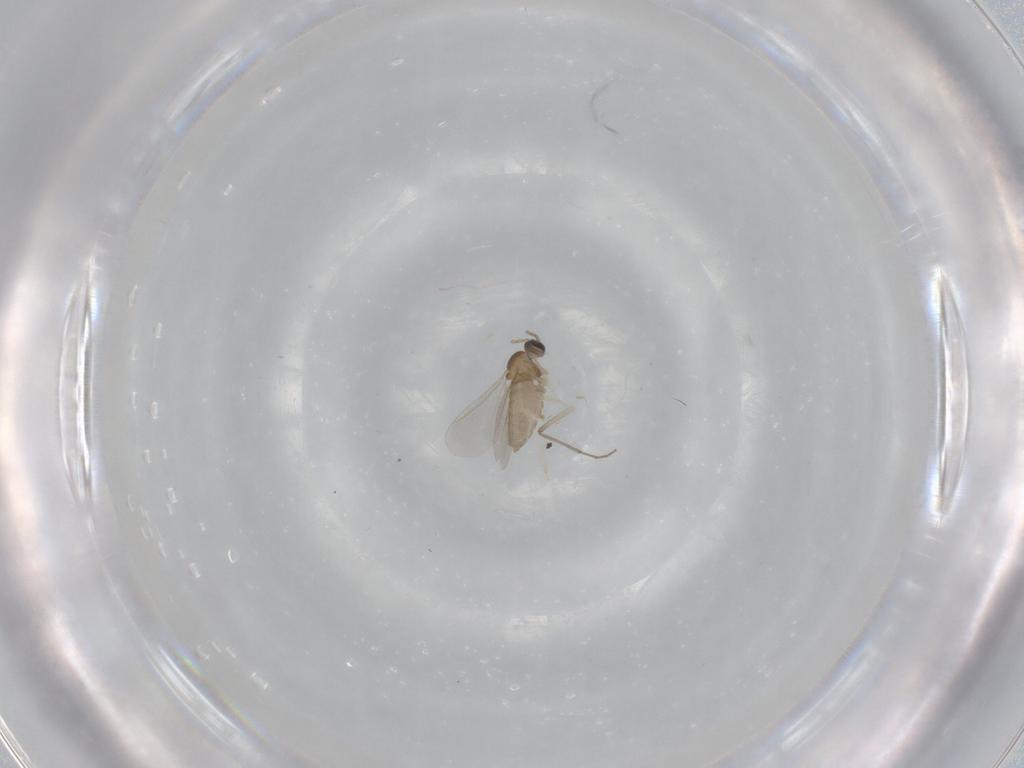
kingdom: Animalia
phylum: Arthropoda
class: Insecta
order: Diptera
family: Cecidomyiidae
